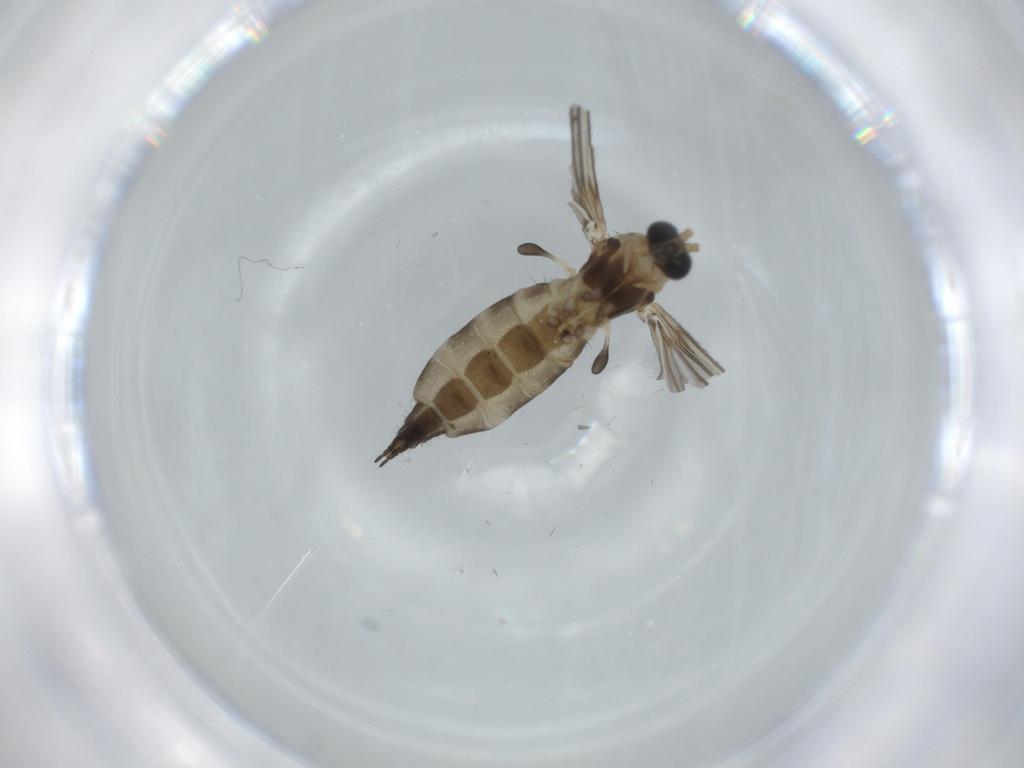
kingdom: Animalia
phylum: Arthropoda
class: Insecta
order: Diptera
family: Sciaridae
